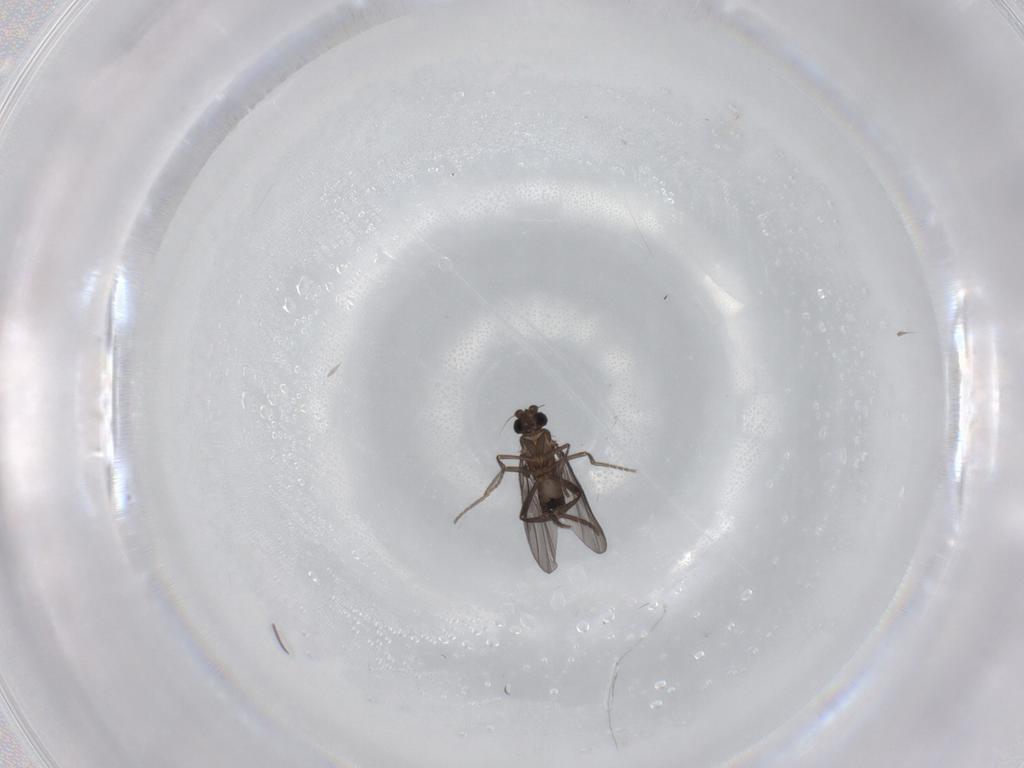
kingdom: Animalia
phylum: Arthropoda
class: Insecta
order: Diptera
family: Phoridae
